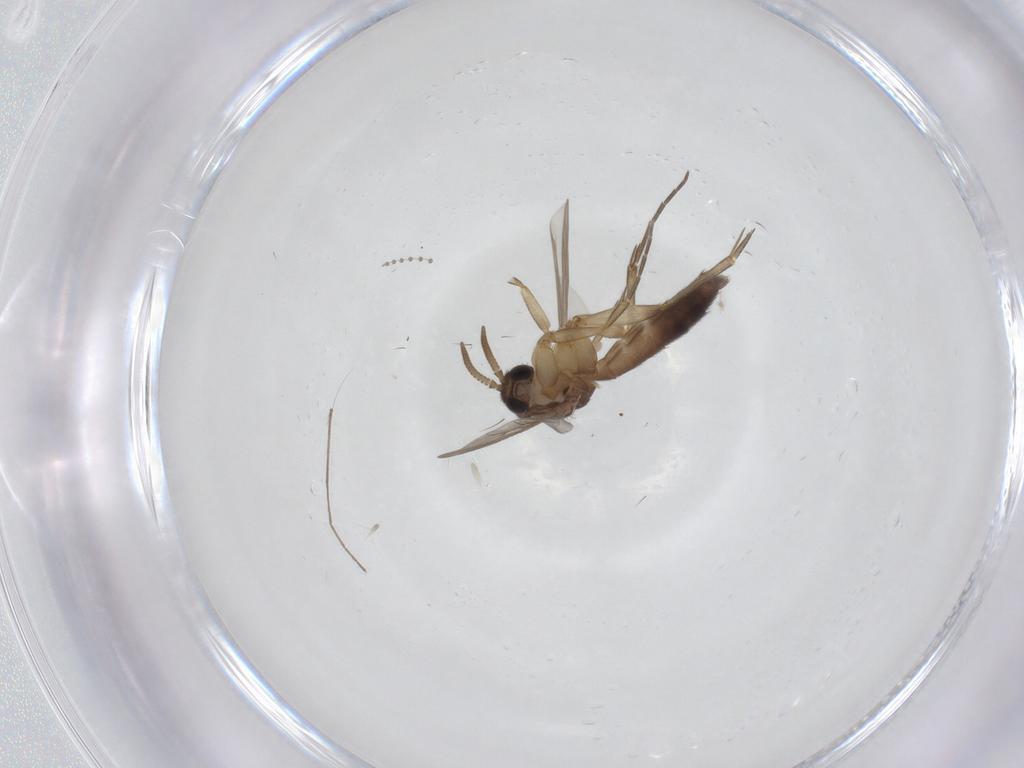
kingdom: Animalia
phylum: Arthropoda
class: Insecta
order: Diptera
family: Mycetophilidae
